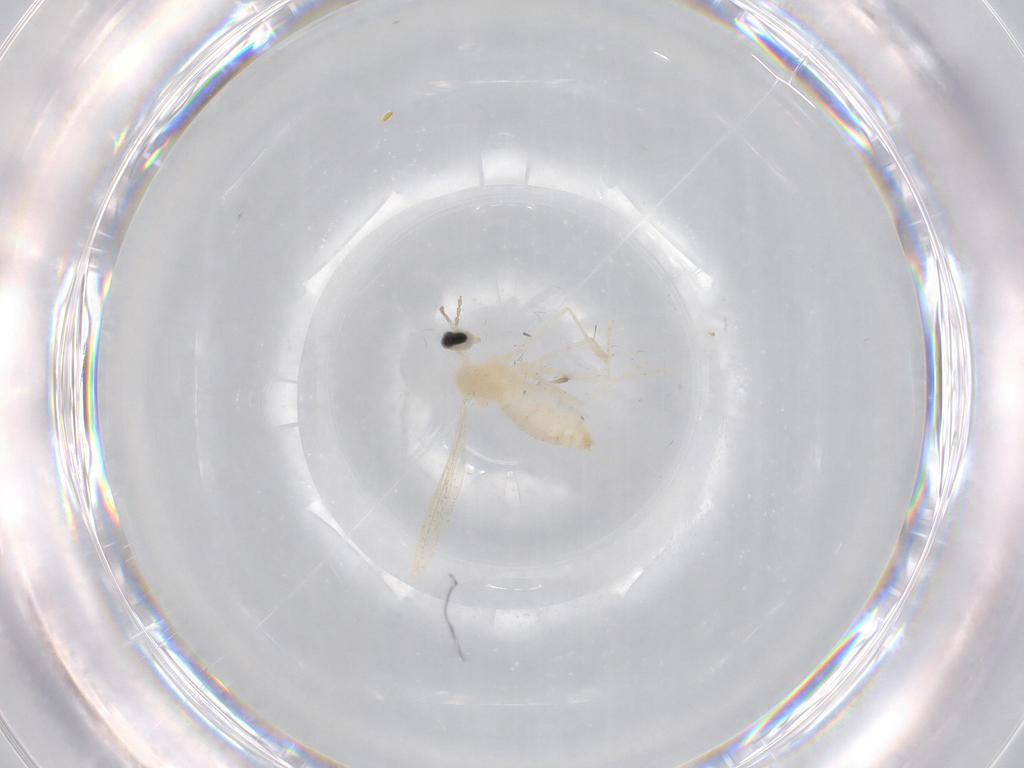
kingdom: Animalia
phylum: Arthropoda
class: Insecta
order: Diptera
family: Cecidomyiidae
